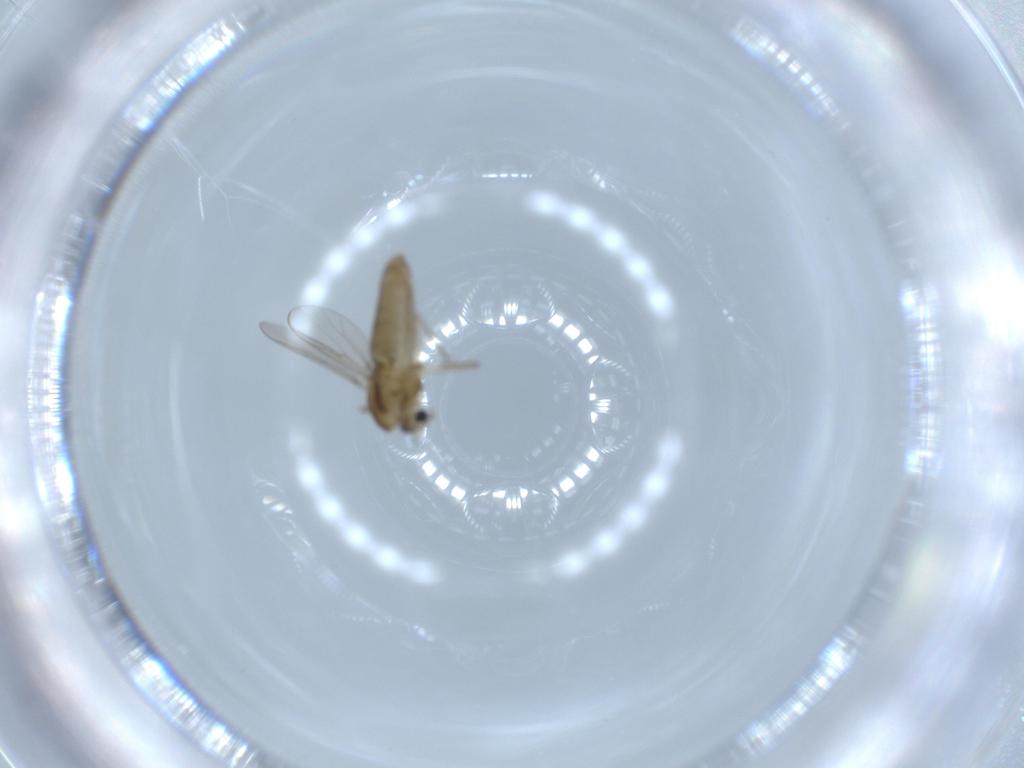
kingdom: Animalia
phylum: Arthropoda
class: Insecta
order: Diptera
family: Chironomidae
